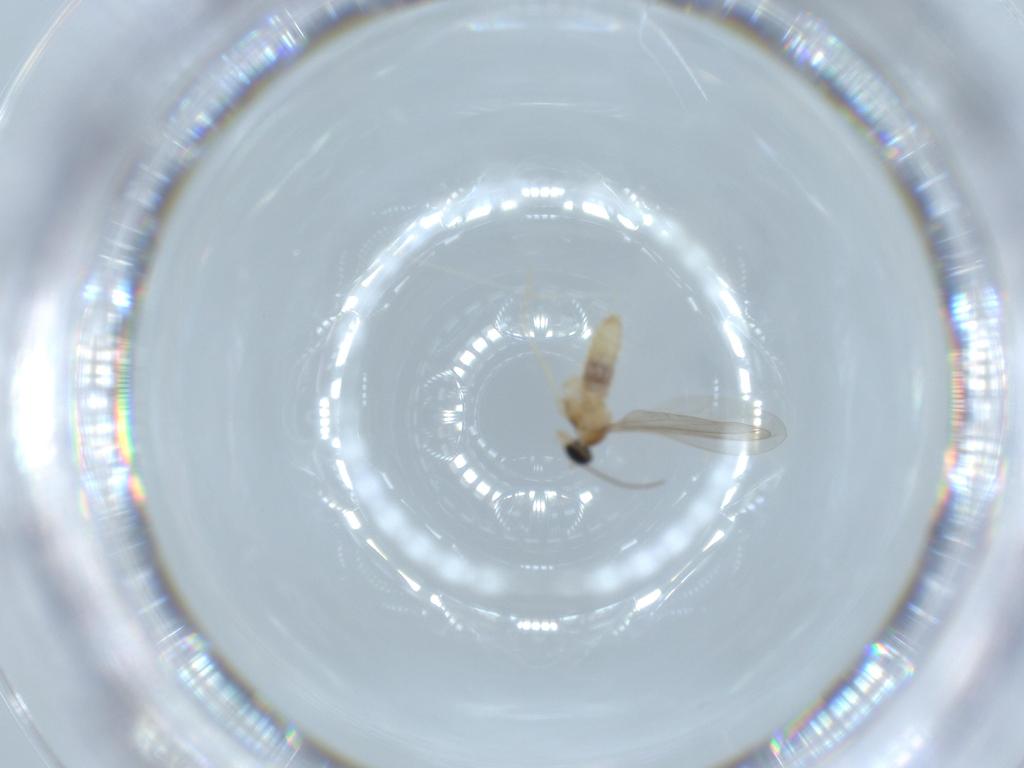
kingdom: Animalia
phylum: Arthropoda
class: Insecta
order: Diptera
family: Cecidomyiidae
